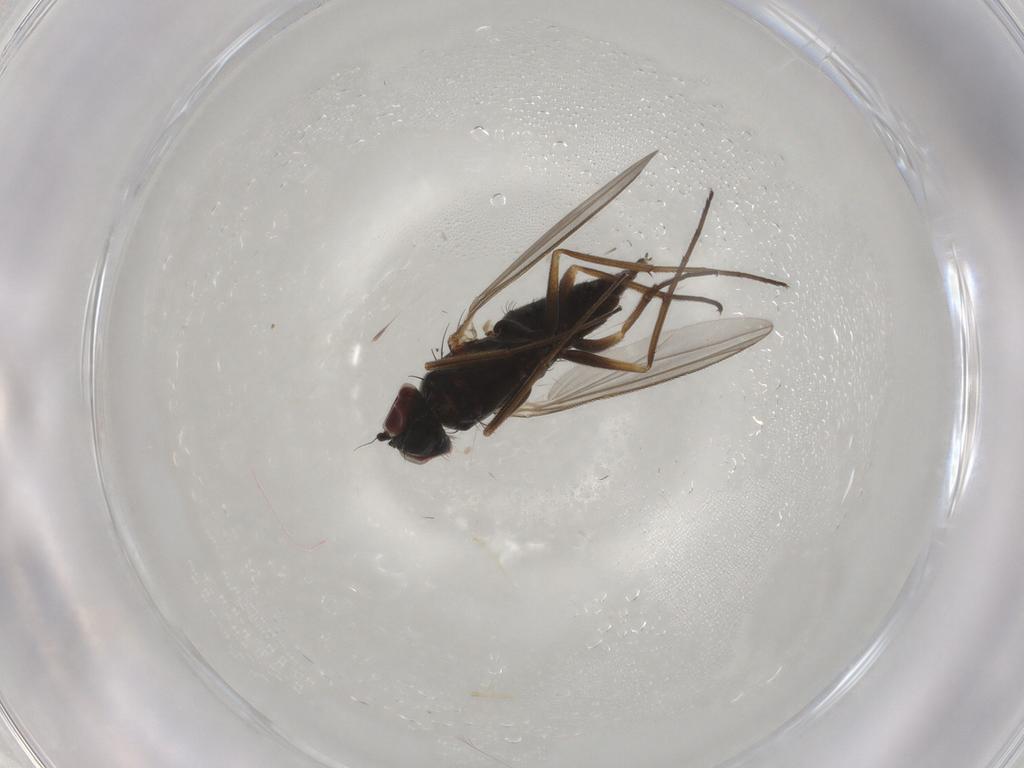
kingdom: Animalia
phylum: Arthropoda
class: Insecta
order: Diptera
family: Dolichopodidae
